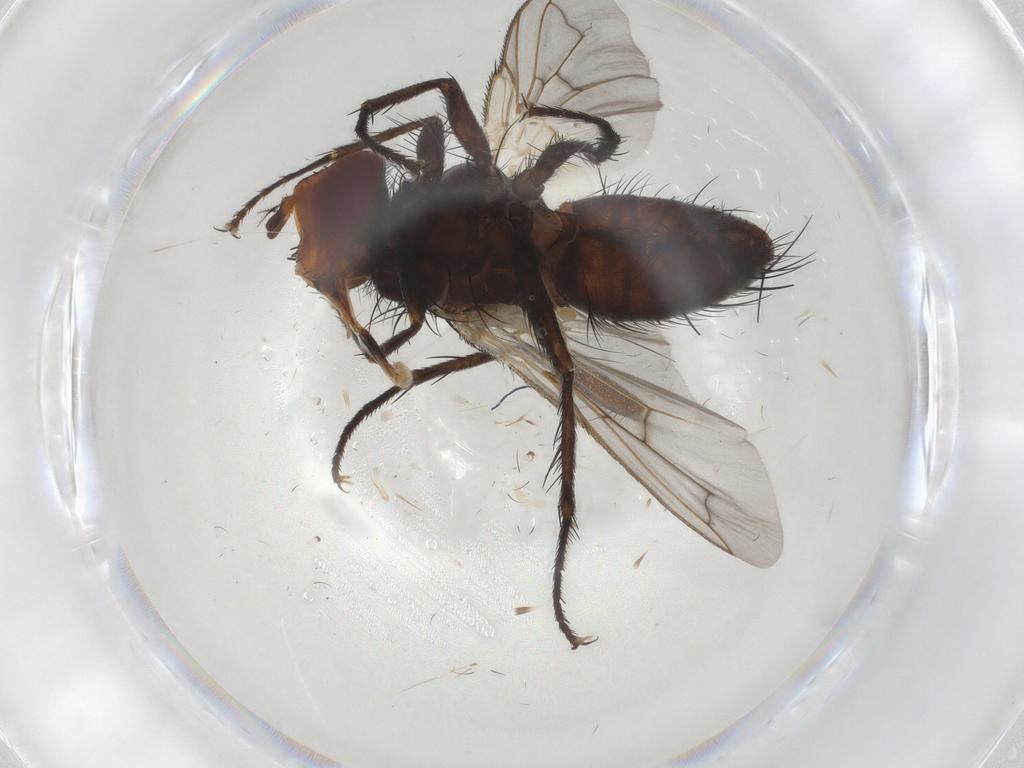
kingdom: Animalia
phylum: Arthropoda
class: Insecta
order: Diptera
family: Tachinidae
